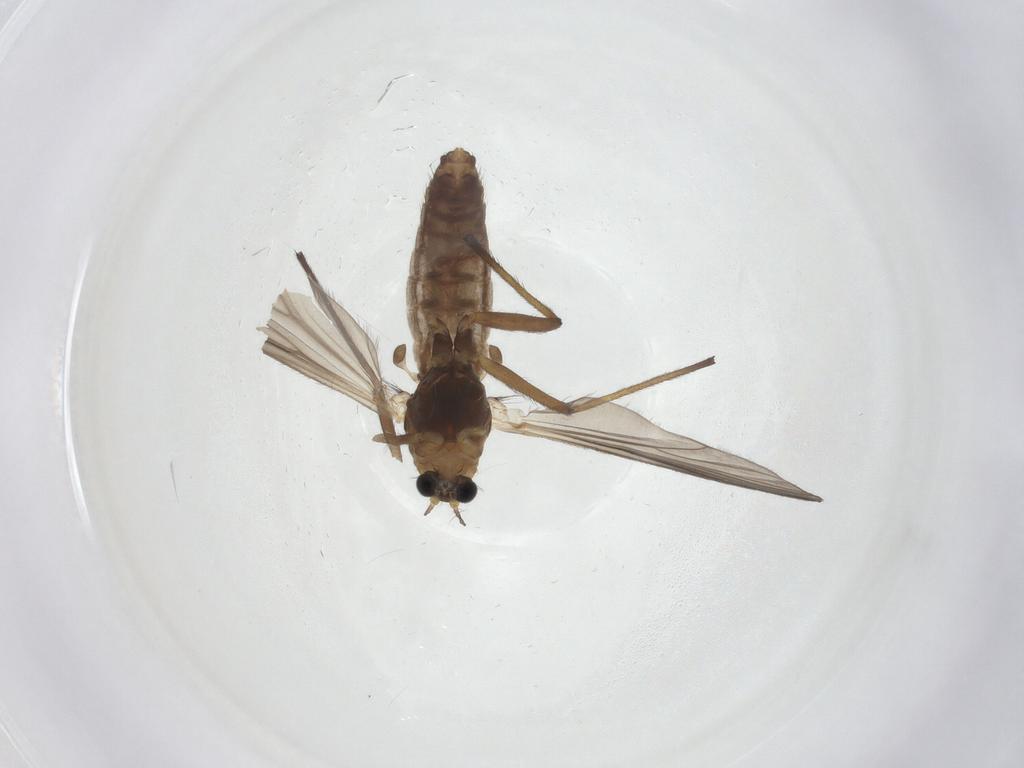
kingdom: Animalia
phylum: Arthropoda
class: Insecta
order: Diptera
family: Chironomidae
